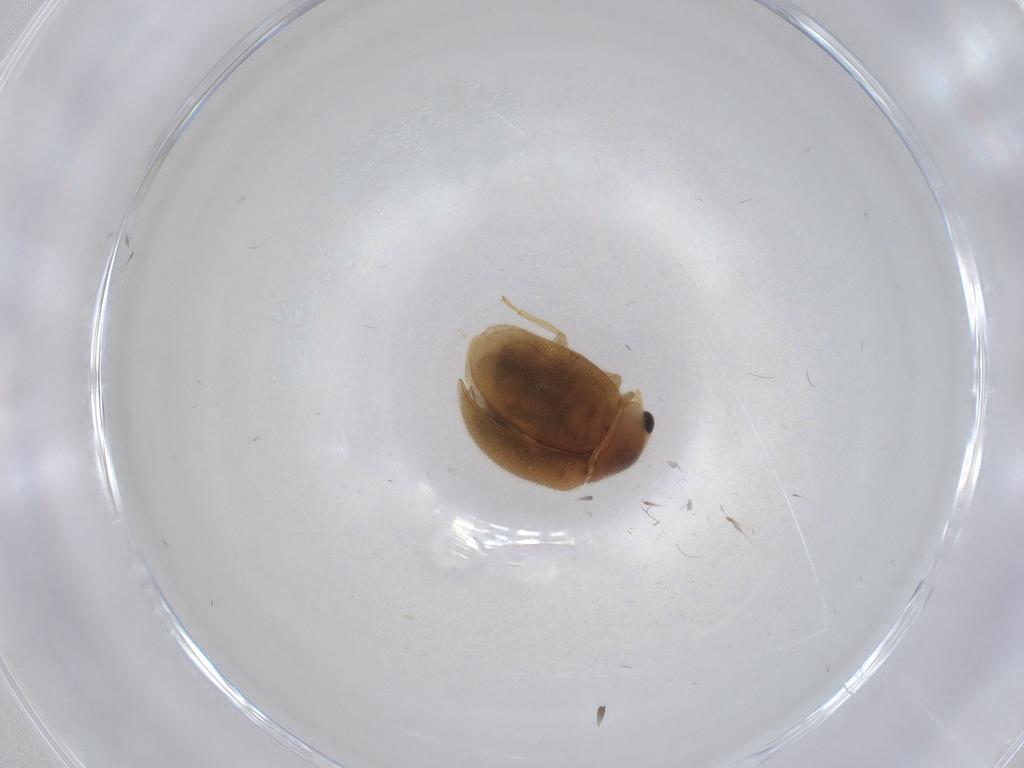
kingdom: Animalia
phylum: Arthropoda
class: Insecta
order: Coleoptera
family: Coccinellidae
